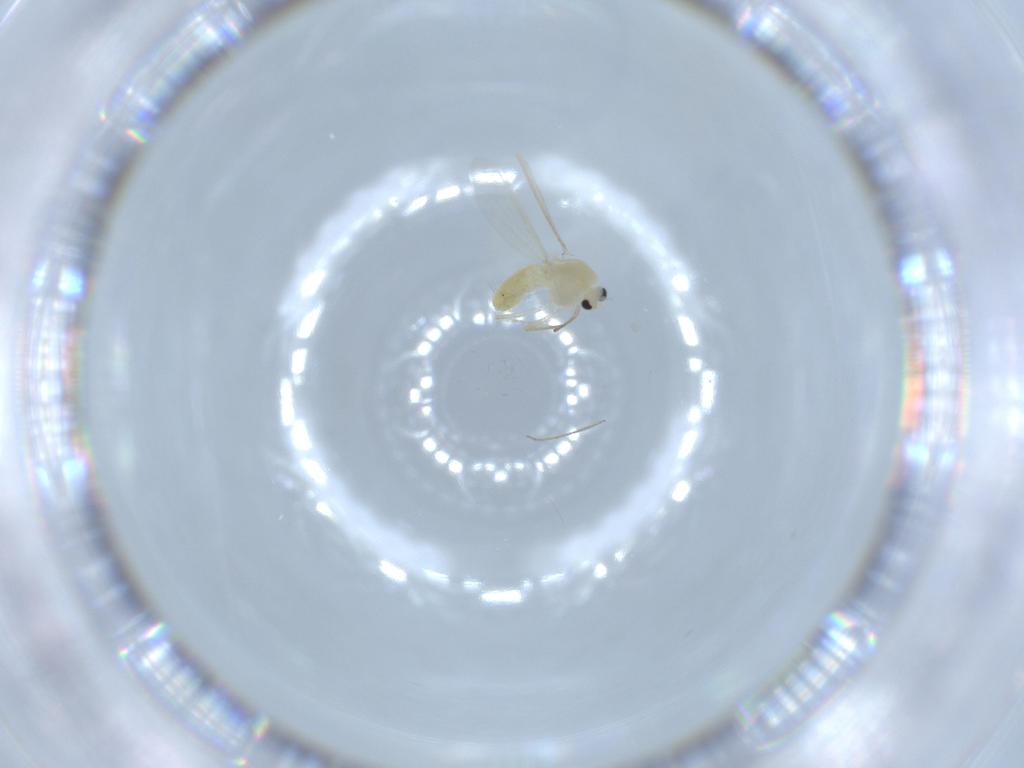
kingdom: Animalia
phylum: Arthropoda
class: Insecta
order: Diptera
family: Chironomidae
